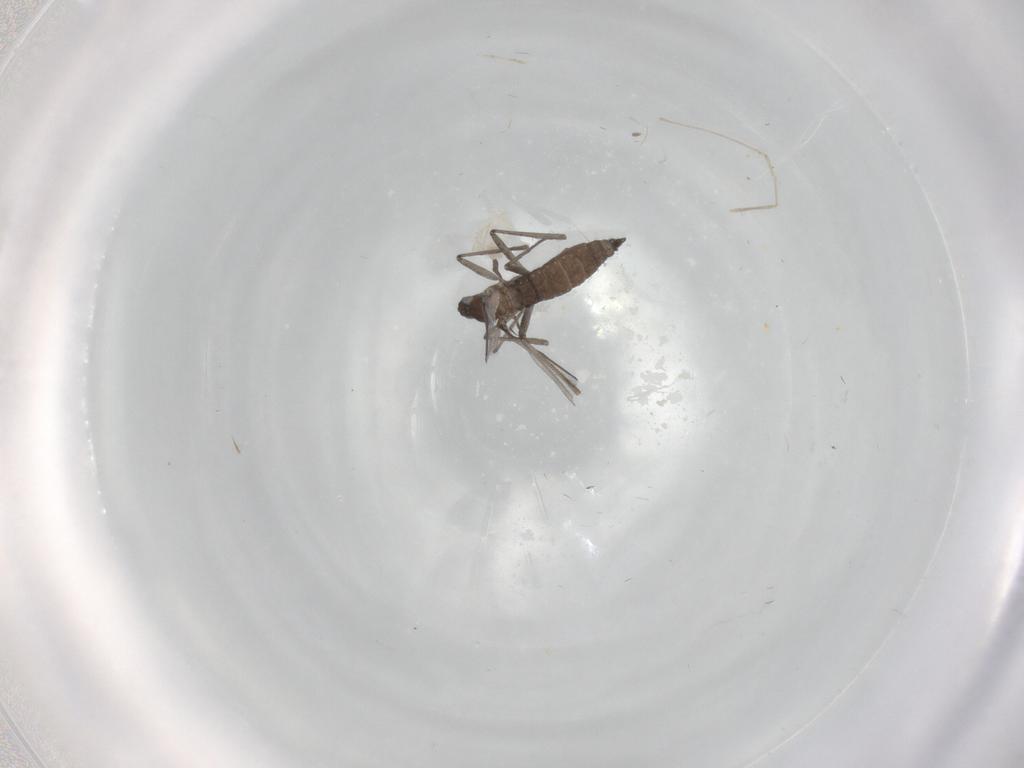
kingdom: Animalia
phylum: Arthropoda
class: Insecta
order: Diptera
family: Cecidomyiidae
